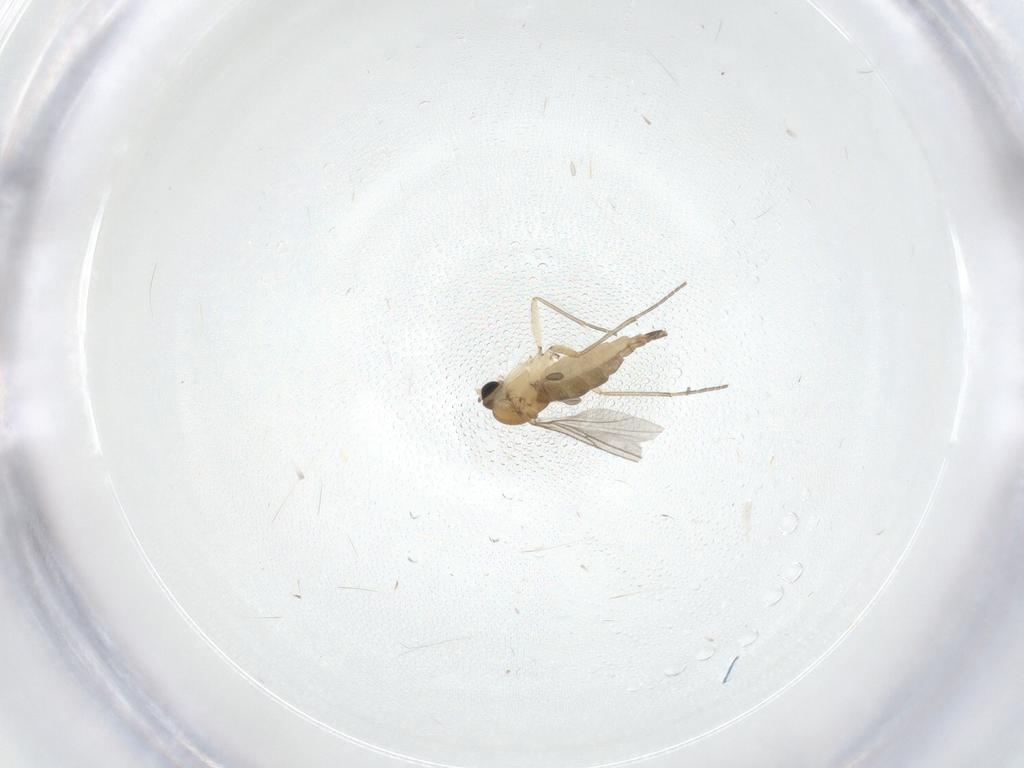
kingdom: Animalia
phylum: Arthropoda
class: Insecta
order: Diptera
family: Sciaridae
